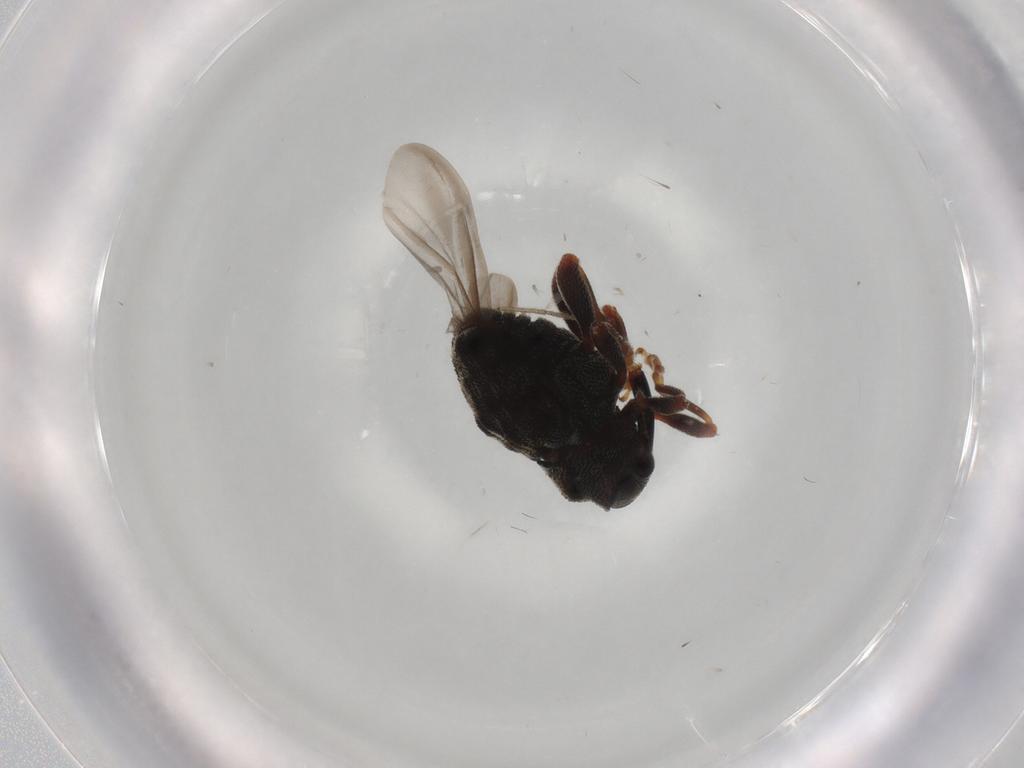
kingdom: Animalia
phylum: Arthropoda
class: Insecta
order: Coleoptera
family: Curculionidae
